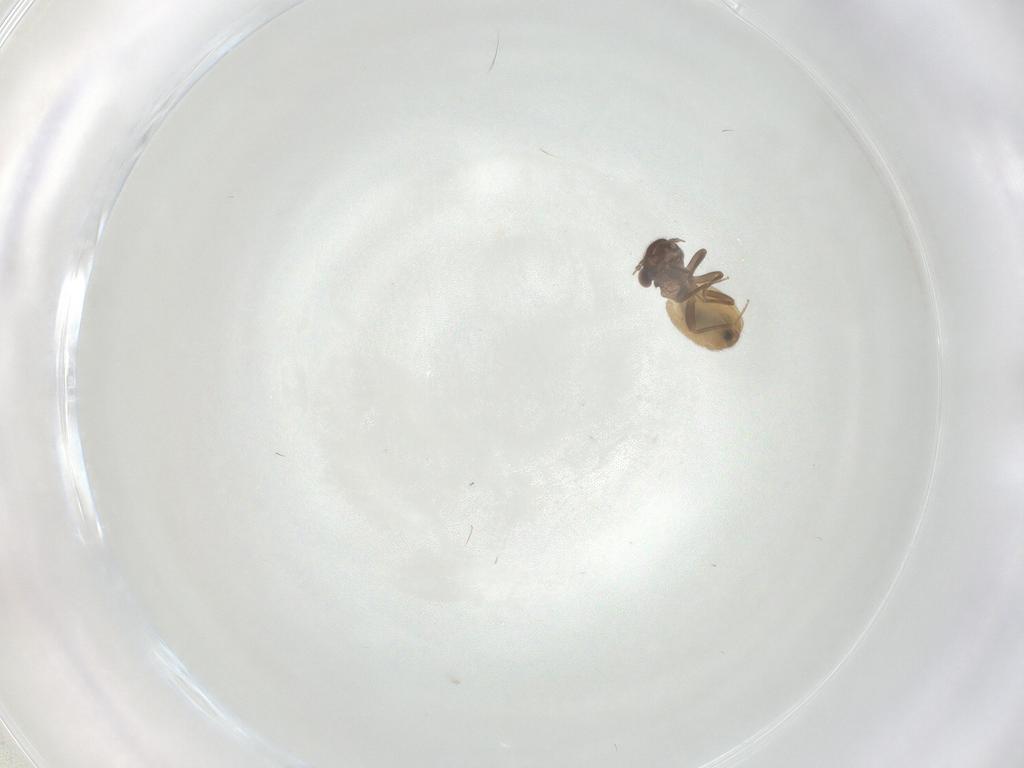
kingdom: Animalia
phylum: Arthropoda
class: Insecta
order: Psocodea
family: Trogiidae
